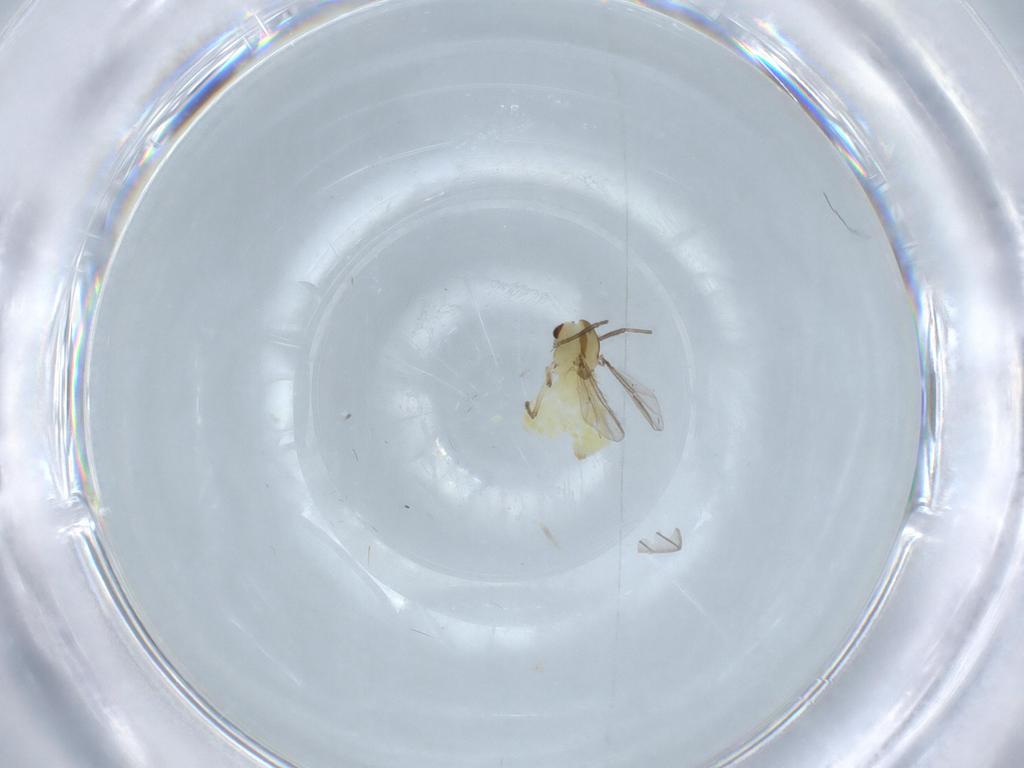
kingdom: Animalia
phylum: Arthropoda
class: Insecta
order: Diptera
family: Chironomidae
